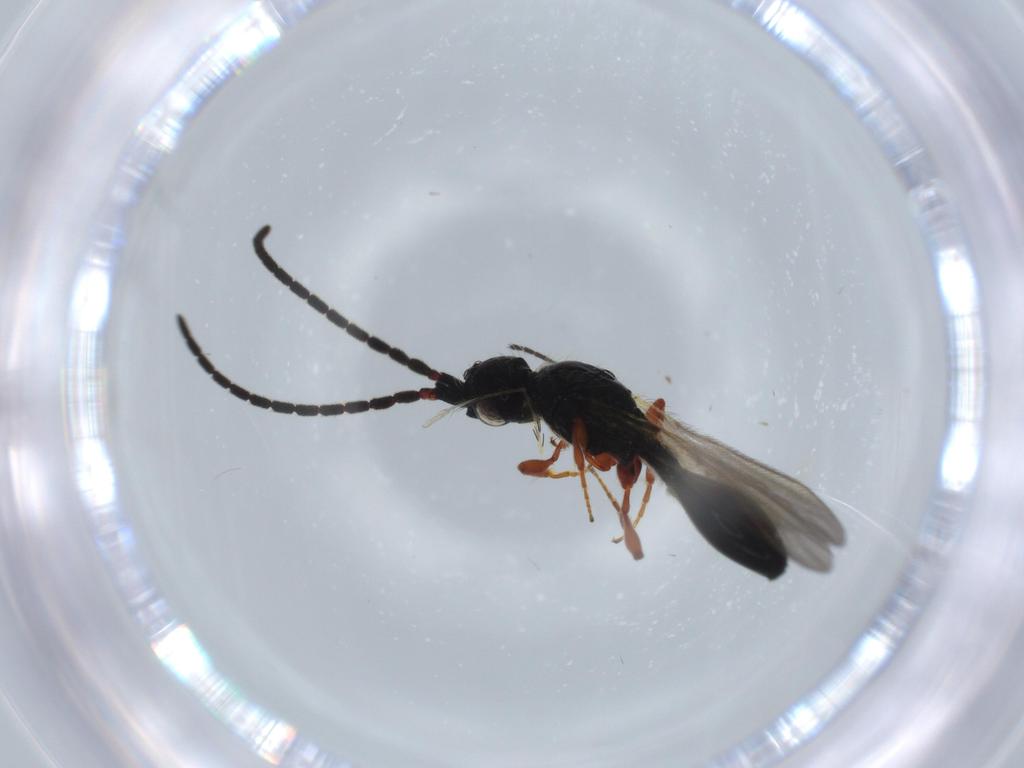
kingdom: Animalia
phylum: Arthropoda
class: Insecta
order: Hymenoptera
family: Diapriidae
